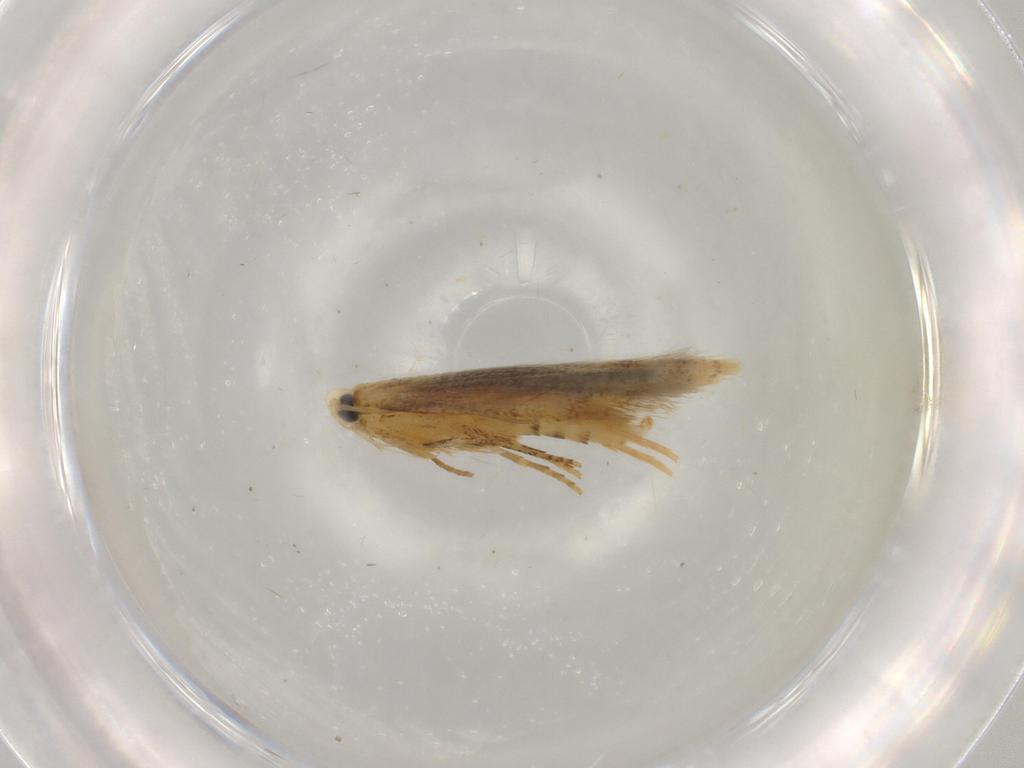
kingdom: Animalia
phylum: Arthropoda
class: Insecta
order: Lepidoptera
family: Tischeriidae
